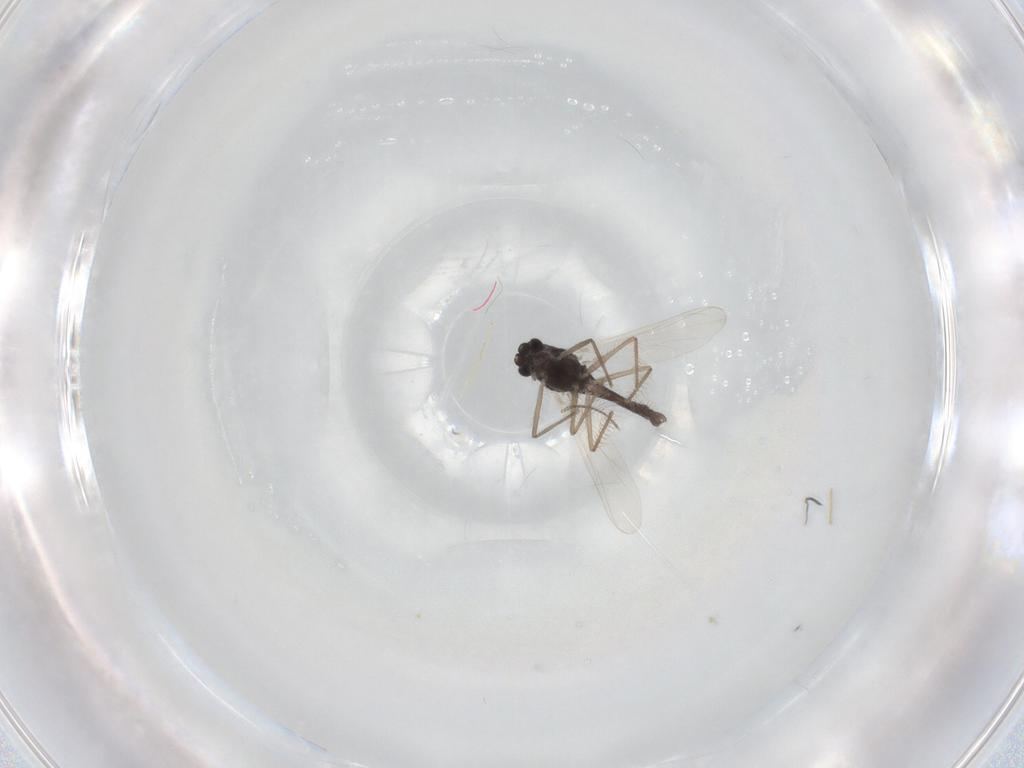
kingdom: Animalia
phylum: Arthropoda
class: Insecta
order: Diptera
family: Chironomidae
